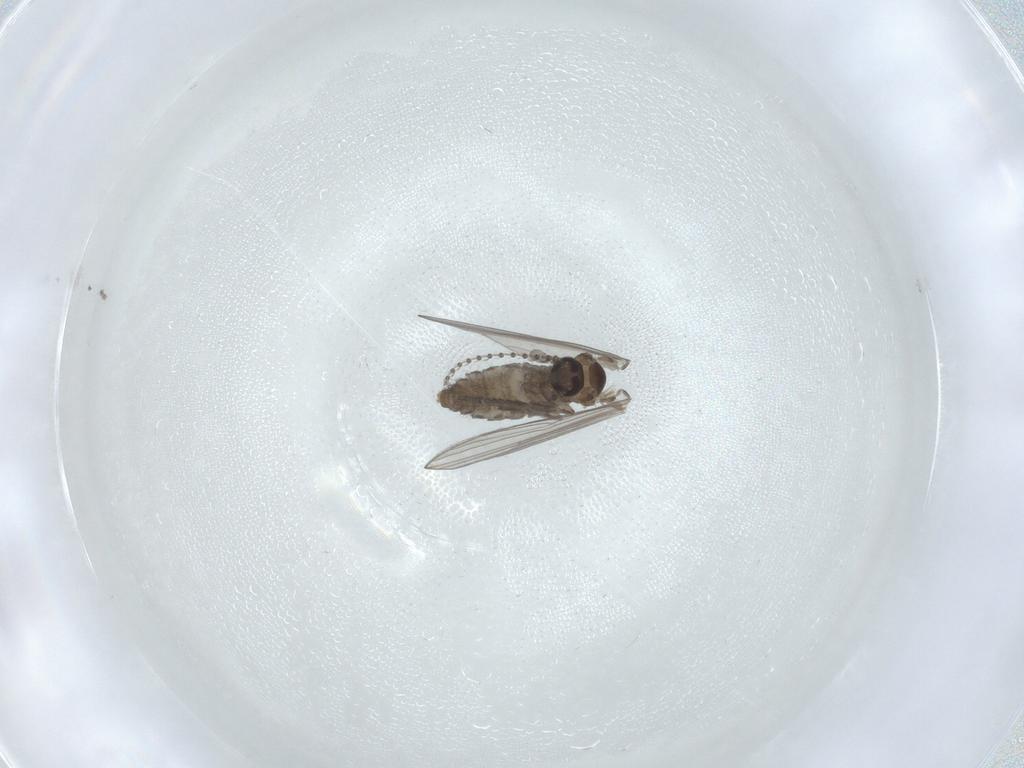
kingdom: Animalia
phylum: Arthropoda
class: Insecta
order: Diptera
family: Psychodidae
